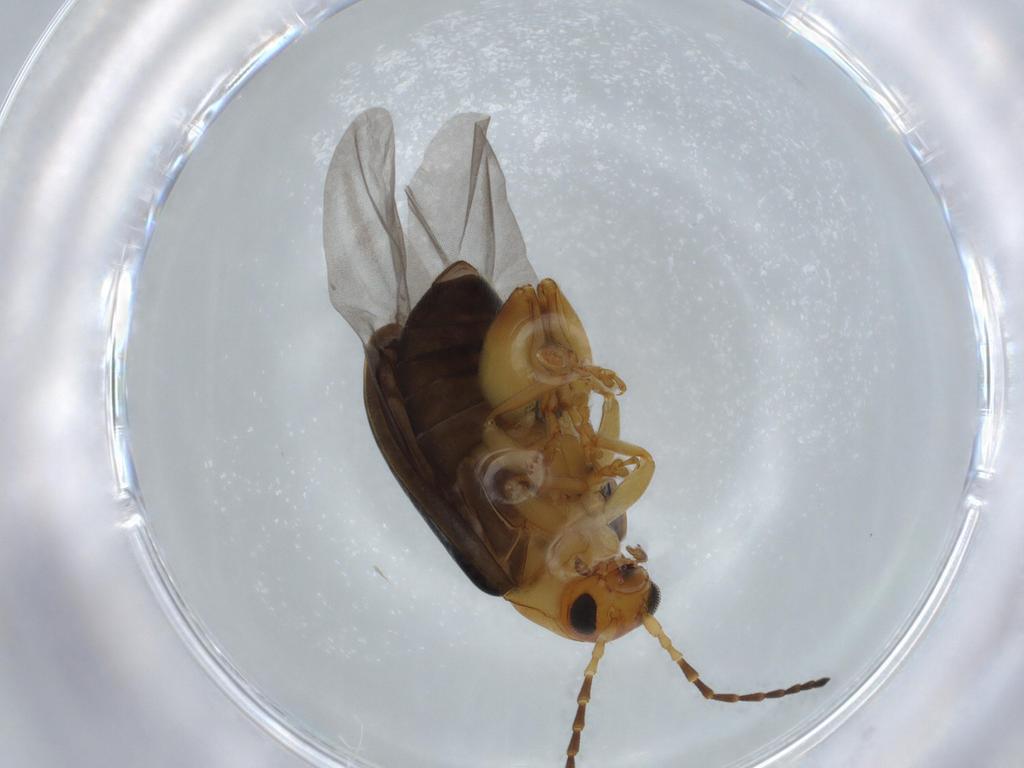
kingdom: Animalia
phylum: Arthropoda
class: Insecta
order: Coleoptera
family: Chrysomelidae
